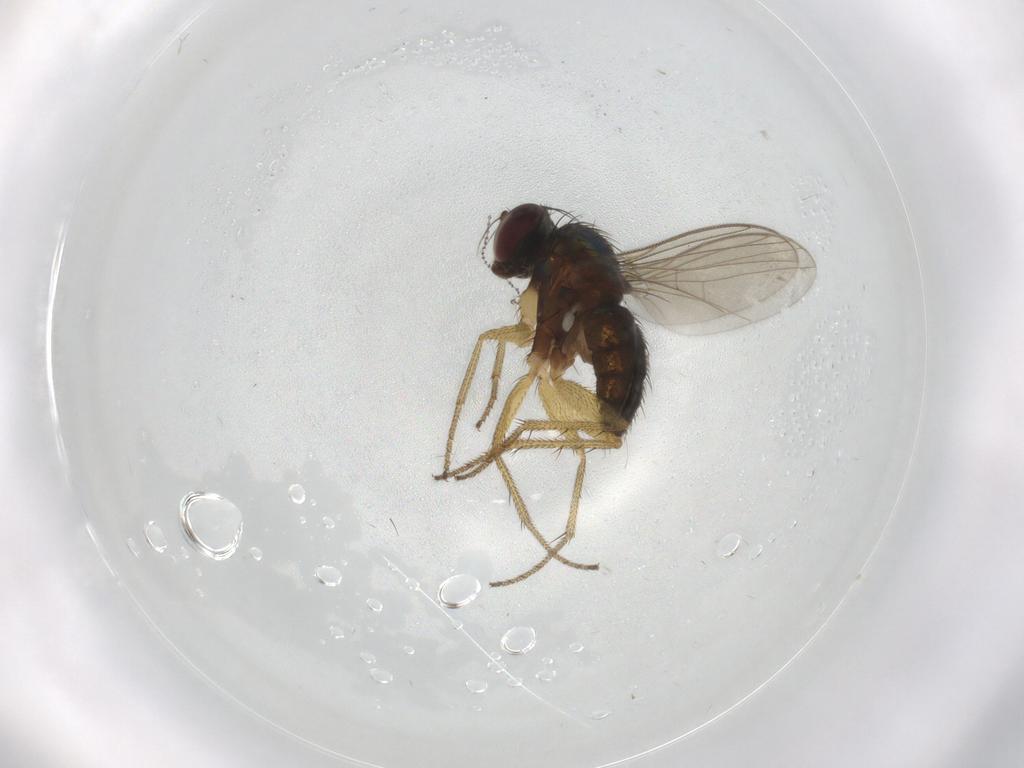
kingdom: Animalia
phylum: Arthropoda
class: Insecta
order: Diptera
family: Cecidomyiidae
